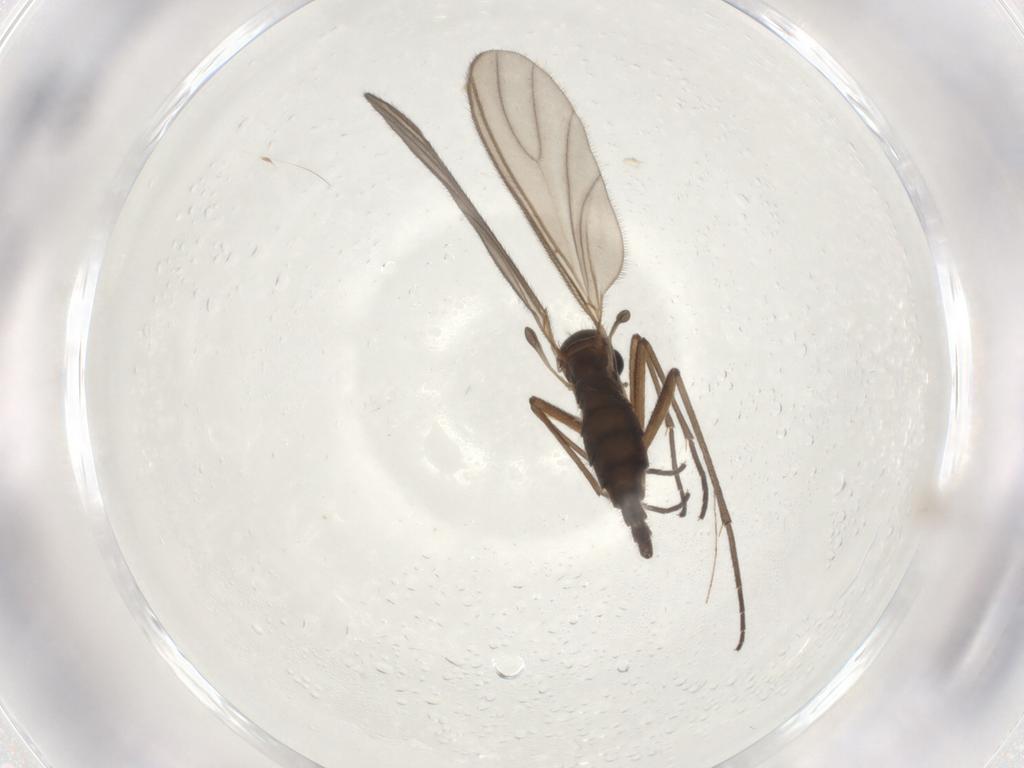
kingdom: Animalia
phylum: Arthropoda
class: Insecta
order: Diptera
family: Sciaridae
